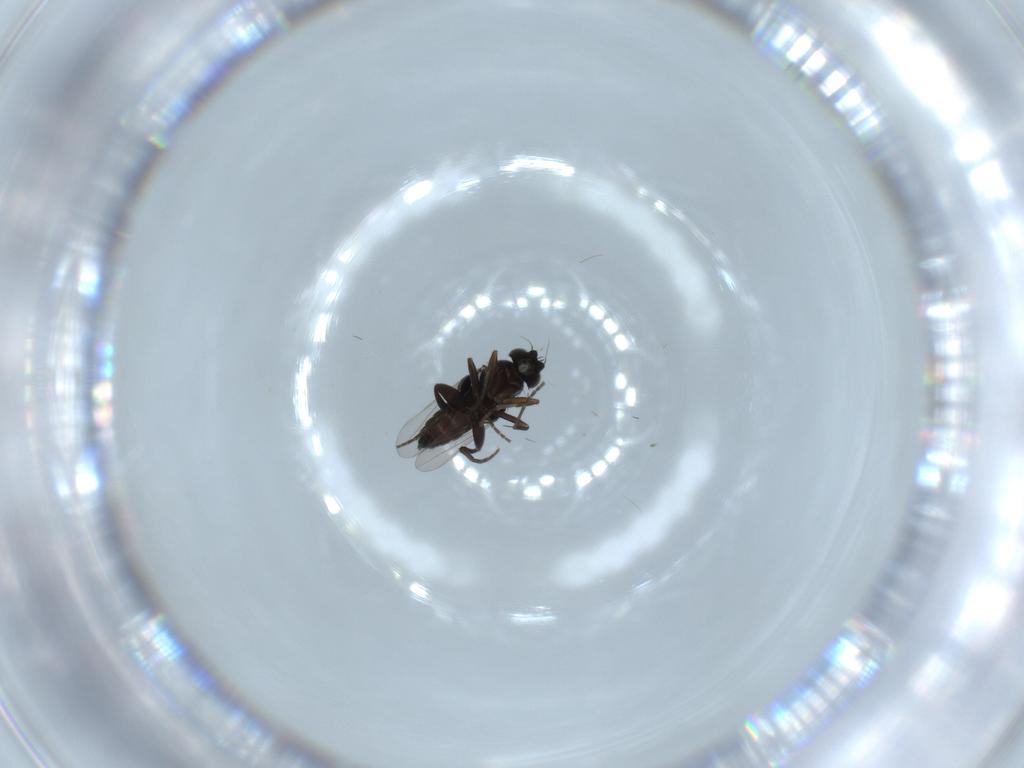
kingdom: Animalia
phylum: Arthropoda
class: Insecta
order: Diptera
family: Phoridae
